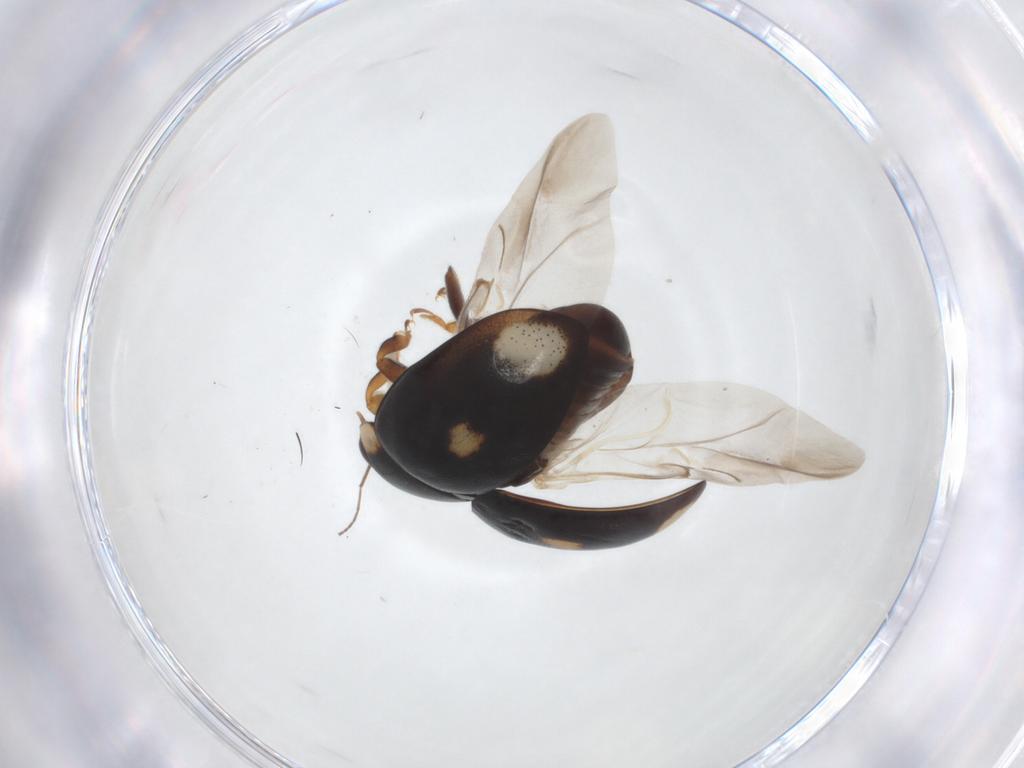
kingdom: Animalia
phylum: Arthropoda
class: Insecta
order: Coleoptera
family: Coccinellidae
